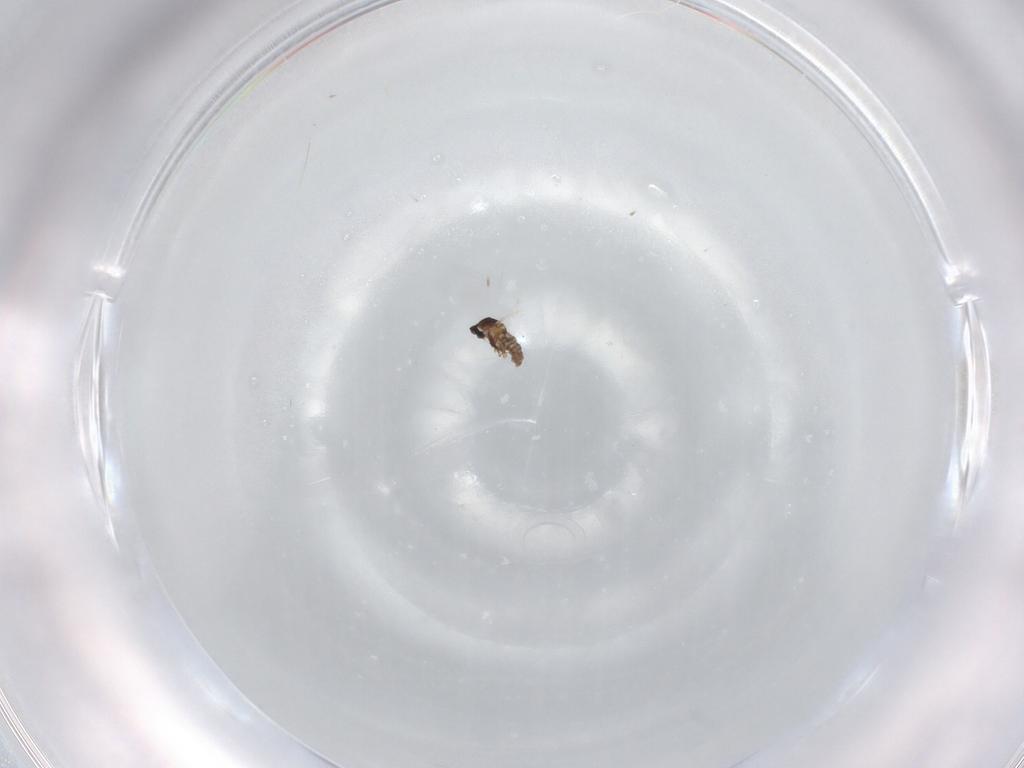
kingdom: Animalia
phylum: Arthropoda
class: Insecta
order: Diptera
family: Cecidomyiidae
